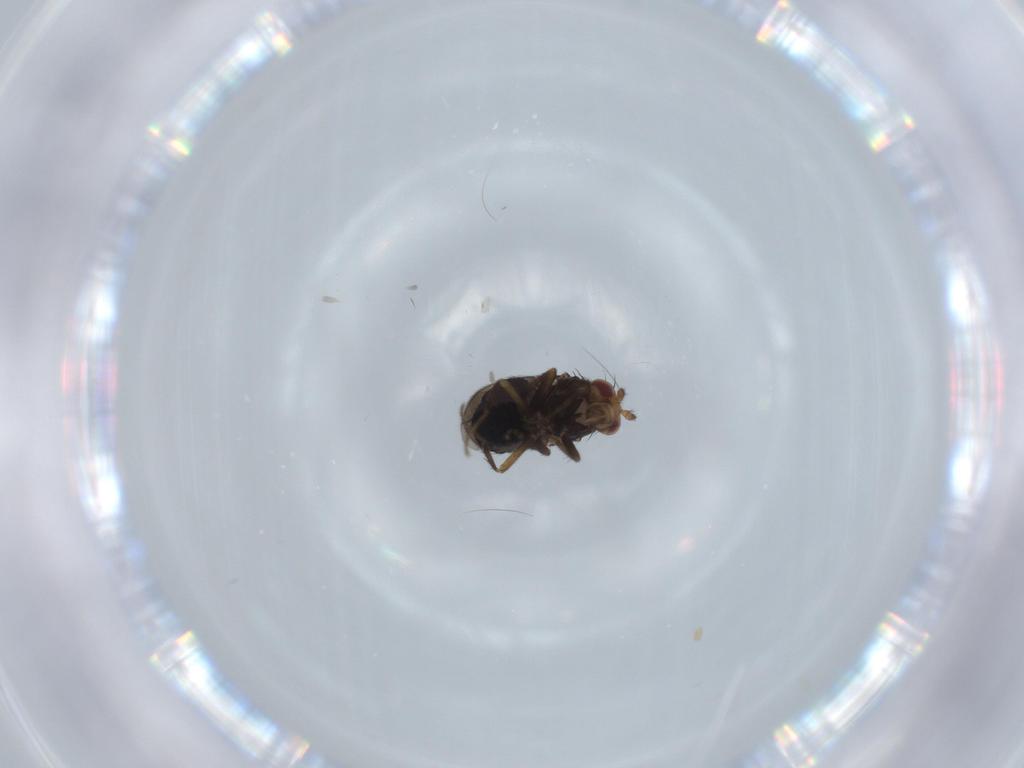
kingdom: Animalia
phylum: Arthropoda
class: Insecta
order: Diptera
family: Sphaeroceridae
